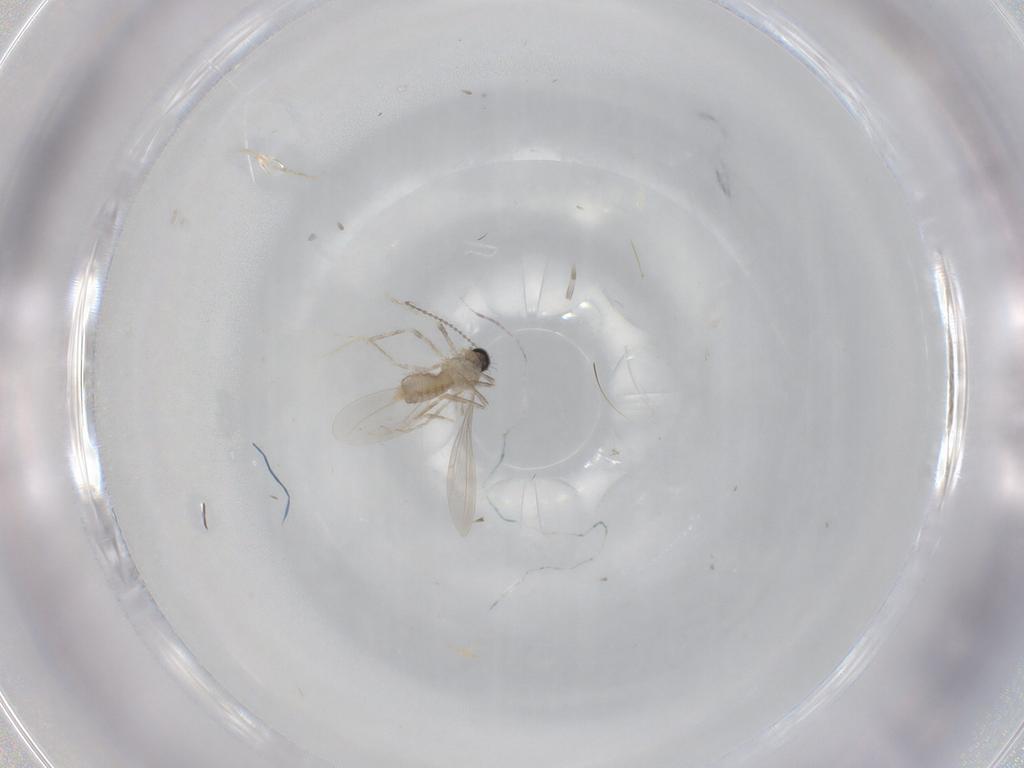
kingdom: Animalia
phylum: Arthropoda
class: Insecta
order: Diptera
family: Cecidomyiidae
